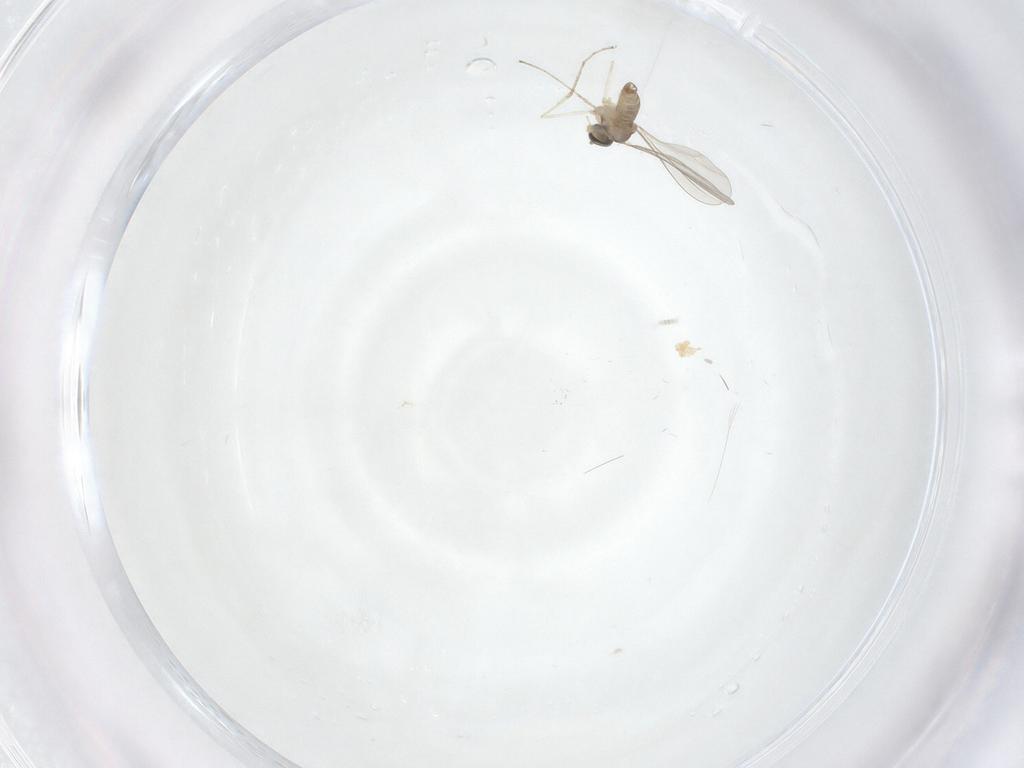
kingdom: Animalia
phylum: Arthropoda
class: Insecta
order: Diptera
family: Cecidomyiidae
